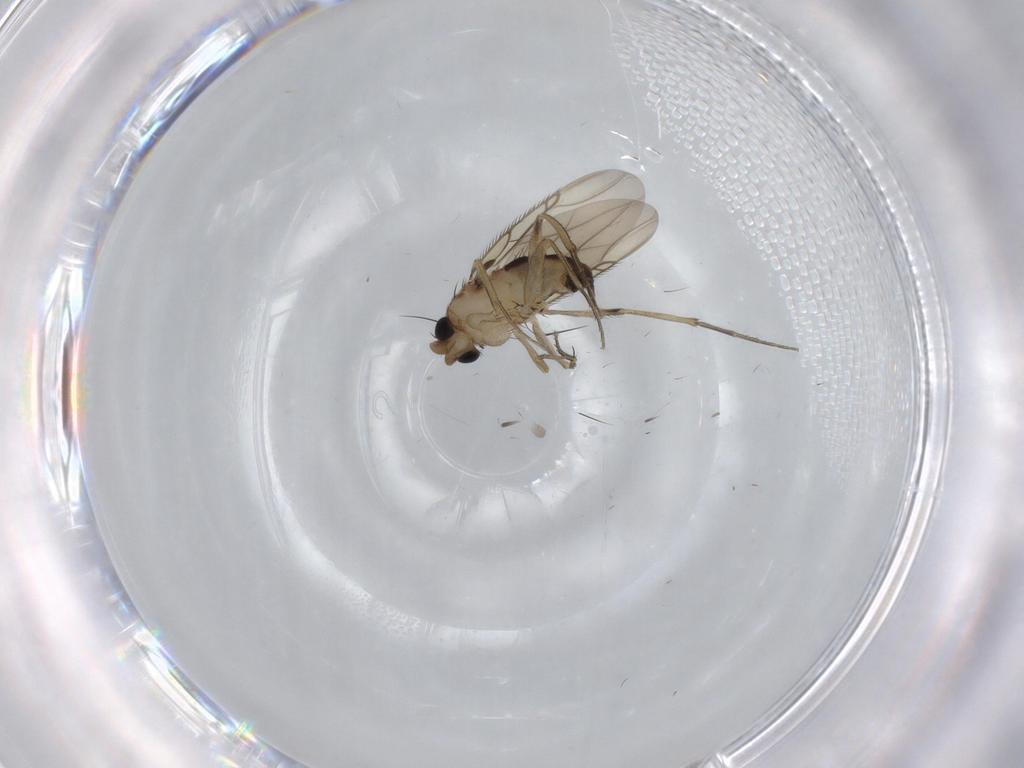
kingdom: Animalia
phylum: Arthropoda
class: Insecta
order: Diptera
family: Phoridae
